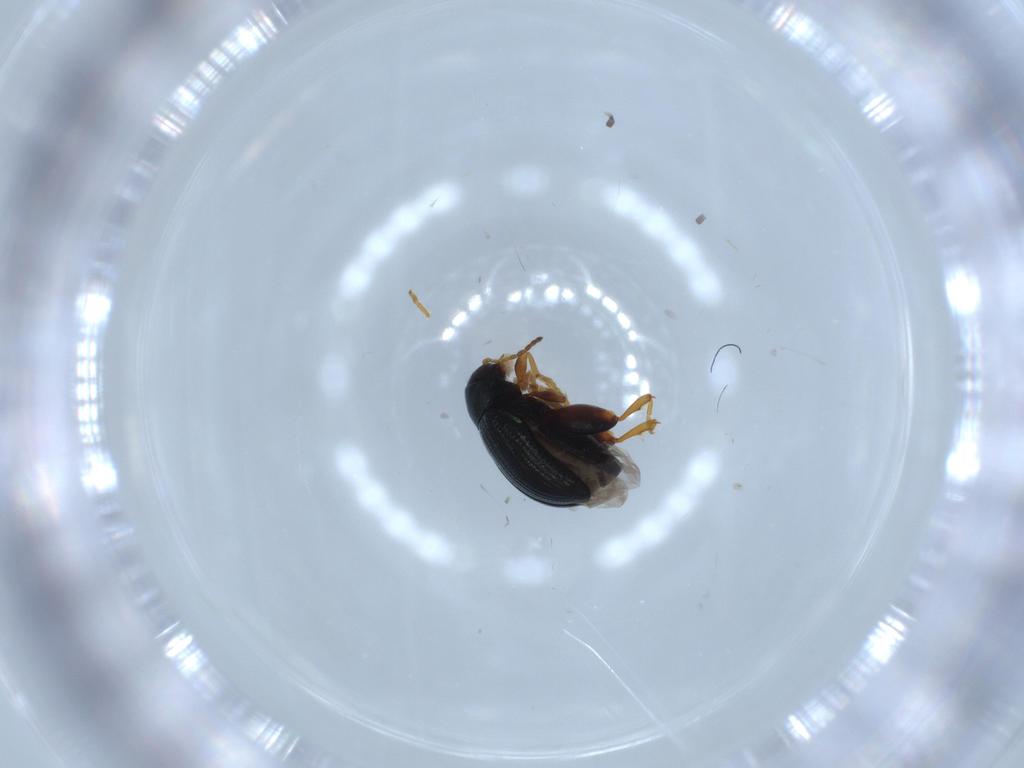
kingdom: Animalia
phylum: Arthropoda
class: Insecta
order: Coleoptera
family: Chrysomelidae
